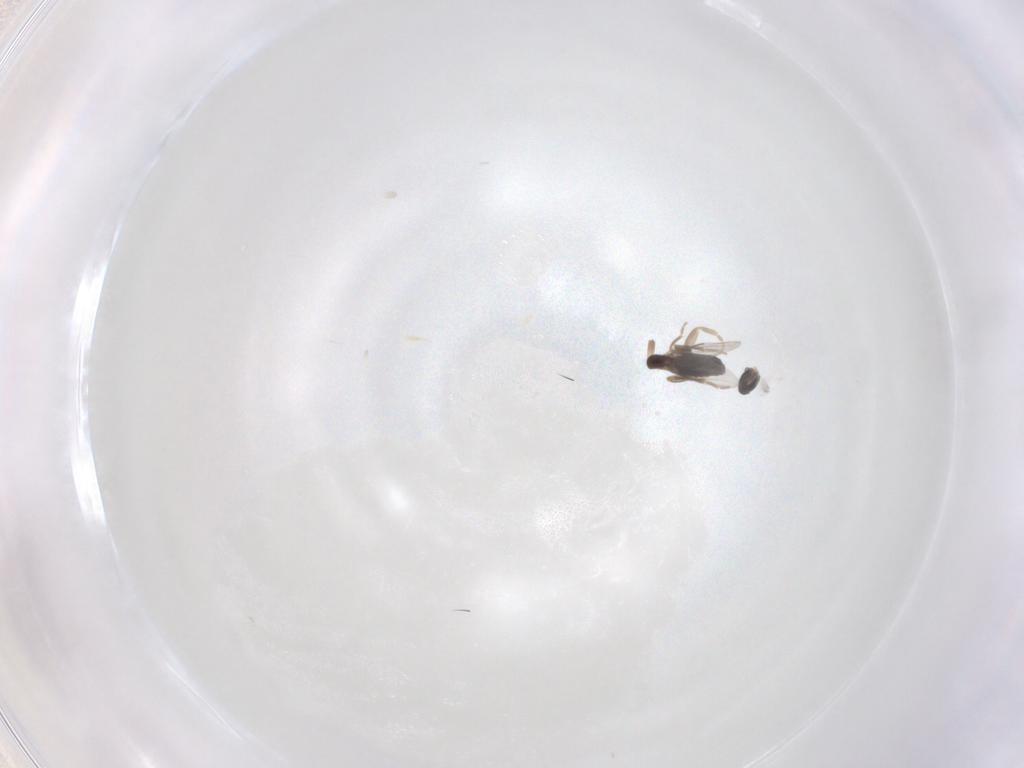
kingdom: Animalia
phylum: Arthropoda
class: Insecta
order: Diptera
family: Phoridae
